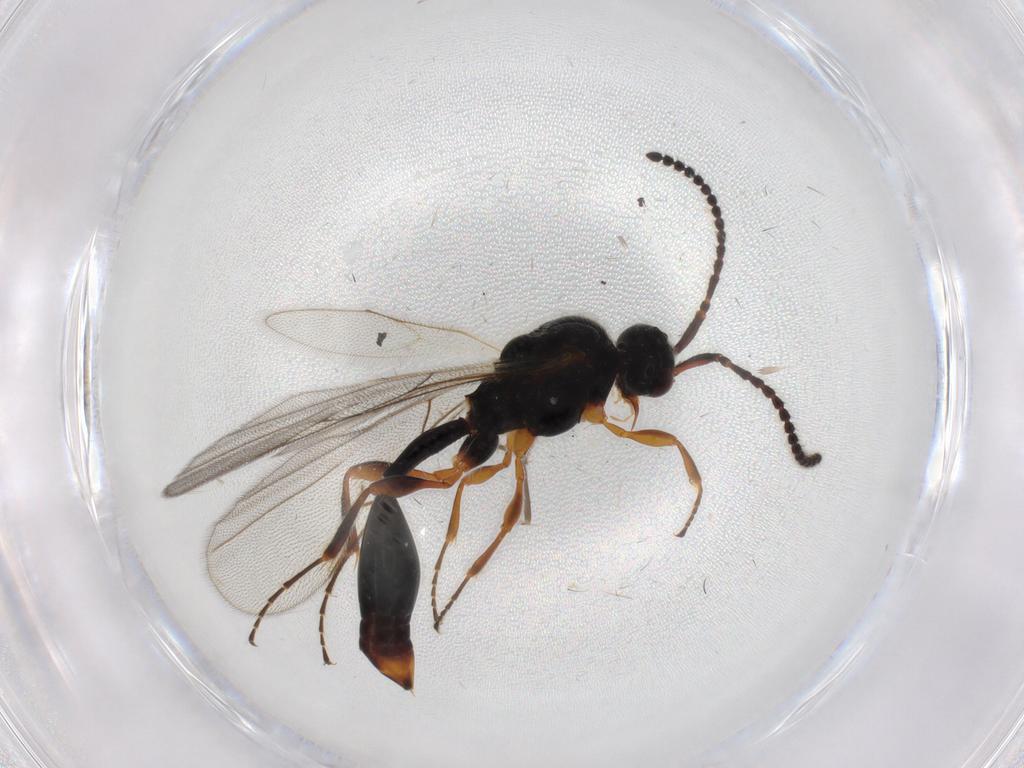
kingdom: Animalia
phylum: Arthropoda
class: Insecta
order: Hymenoptera
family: Diapriidae
